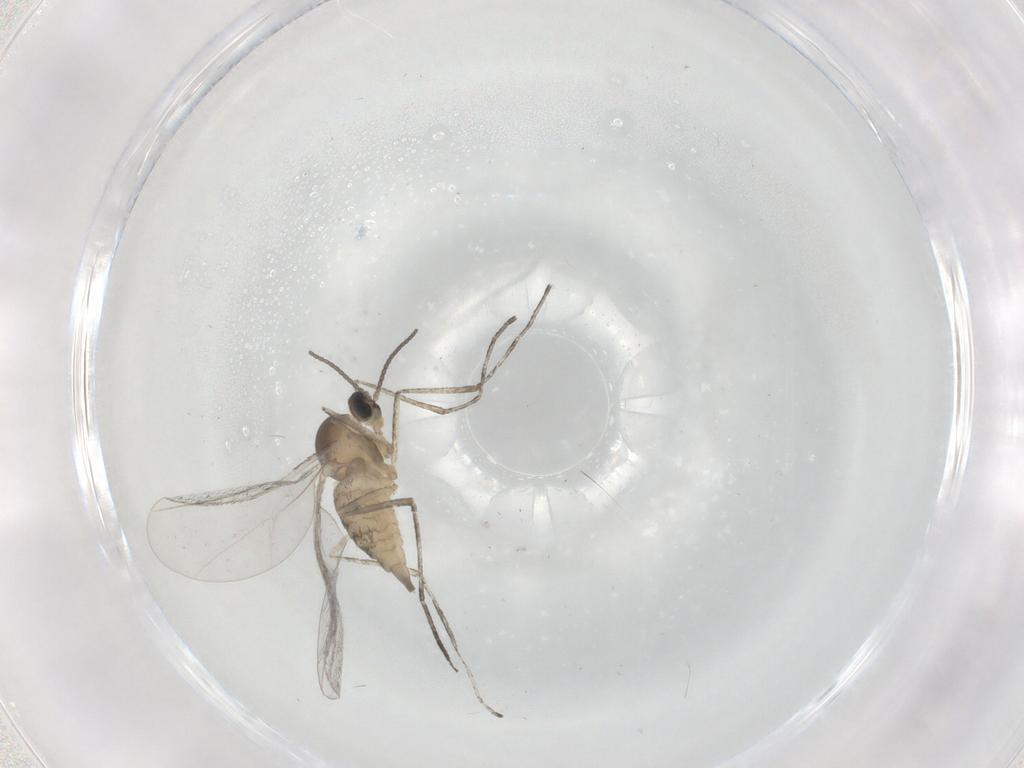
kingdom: Animalia
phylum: Arthropoda
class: Insecta
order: Diptera
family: Cecidomyiidae
